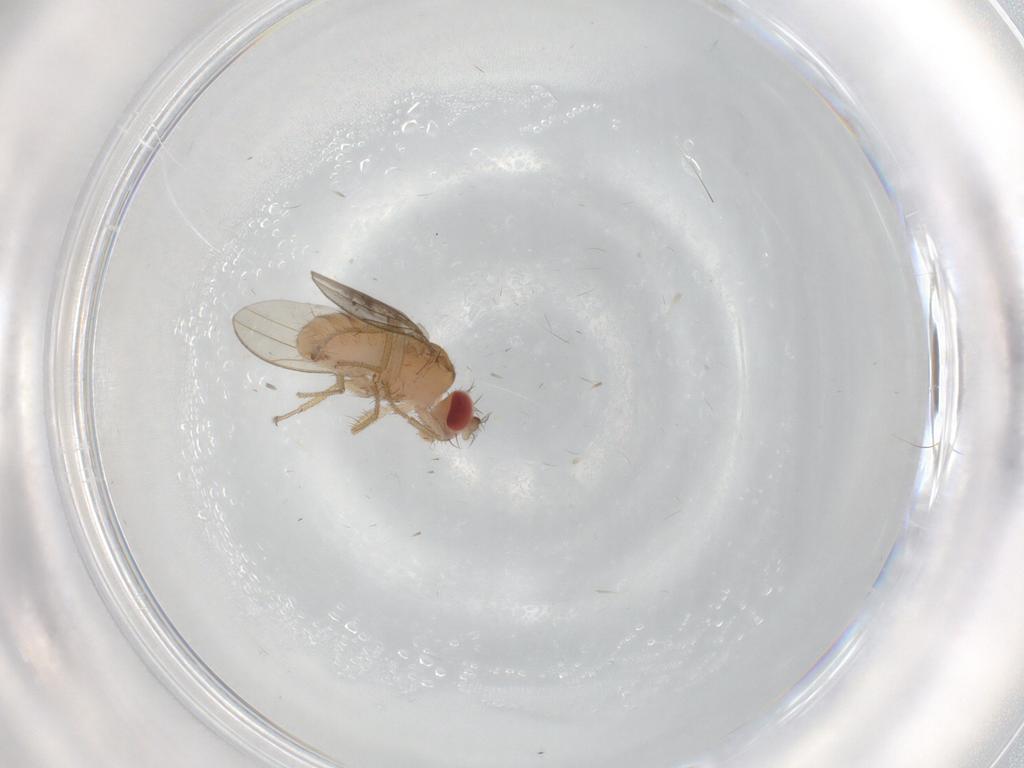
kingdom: Animalia
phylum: Arthropoda
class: Insecta
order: Diptera
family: Drosophilidae
